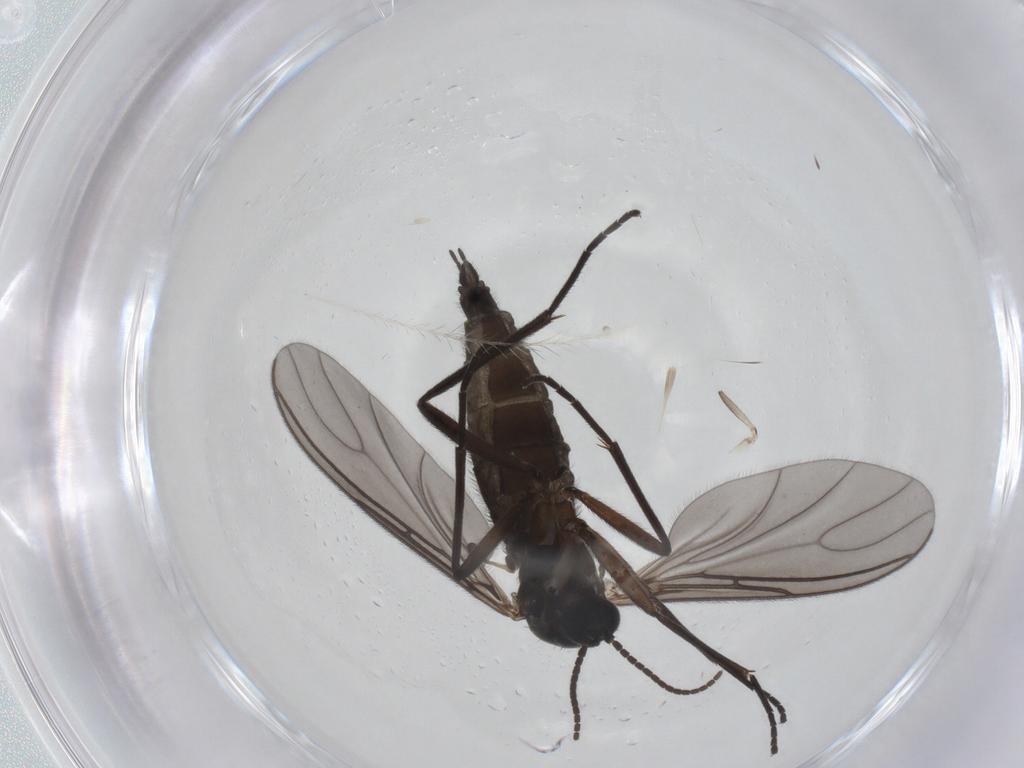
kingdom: Animalia
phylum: Arthropoda
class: Insecta
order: Diptera
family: Sciaridae
